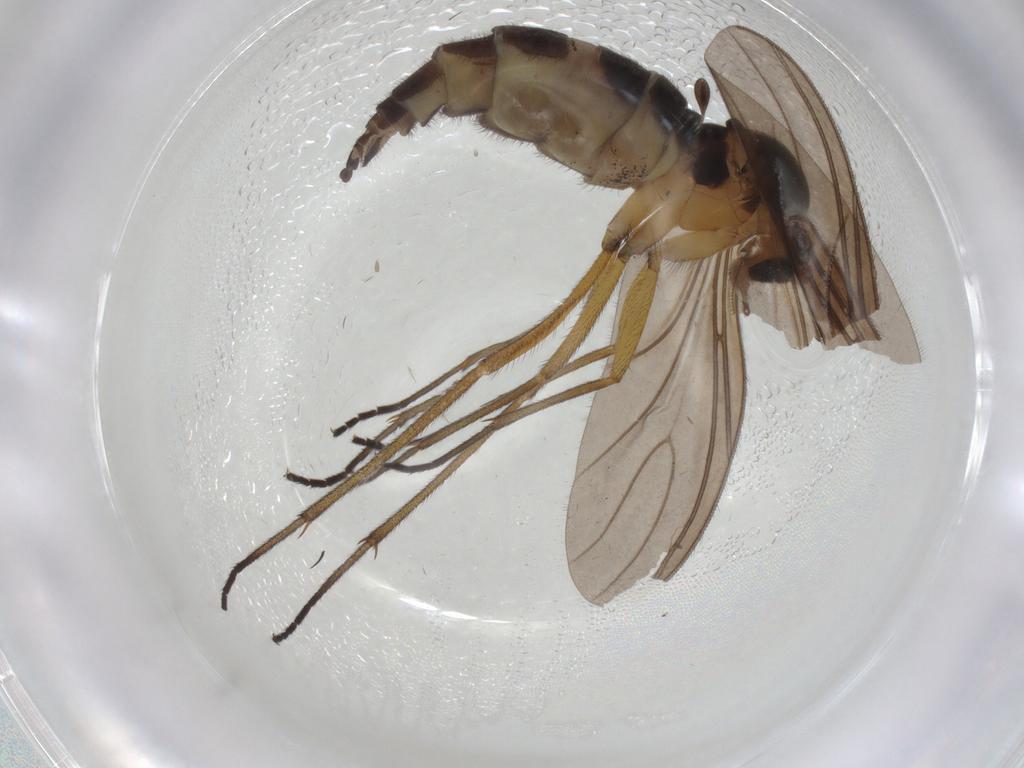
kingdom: Animalia
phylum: Arthropoda
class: Insecta
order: Diptera
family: Sciaridae
